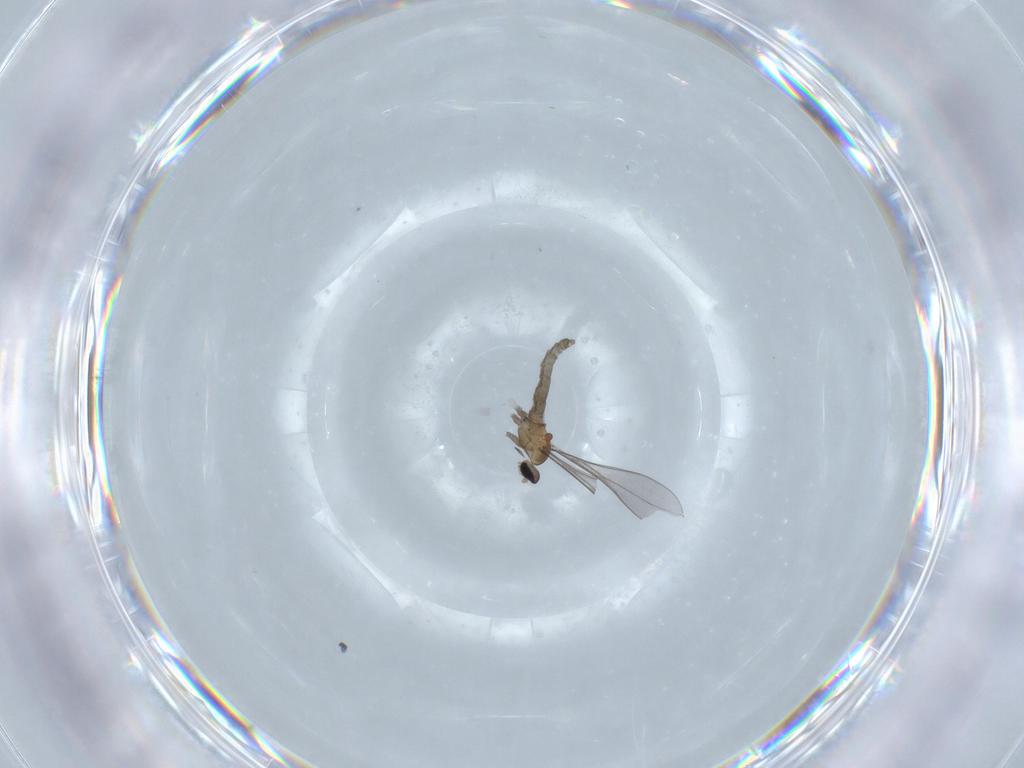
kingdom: Animalia
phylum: Arthropoda
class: Insecta
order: Diptera
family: Cecidomyiidae
